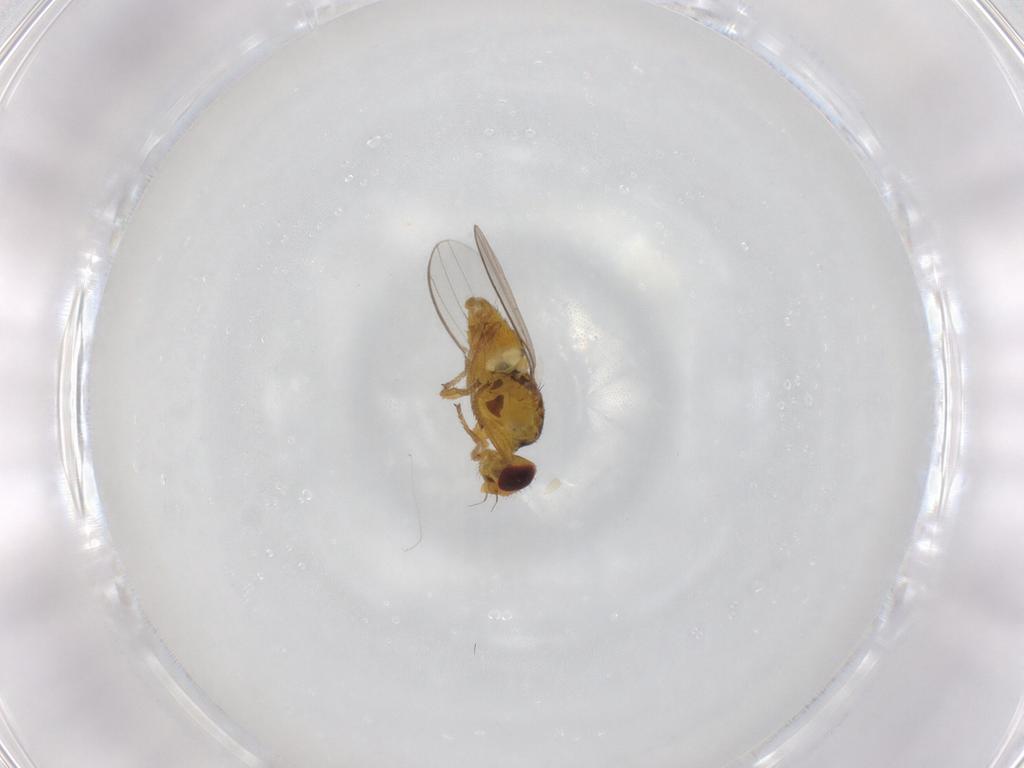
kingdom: Animalia
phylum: Arthropoda
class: Insecta
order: Diptera
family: Chloropidae
